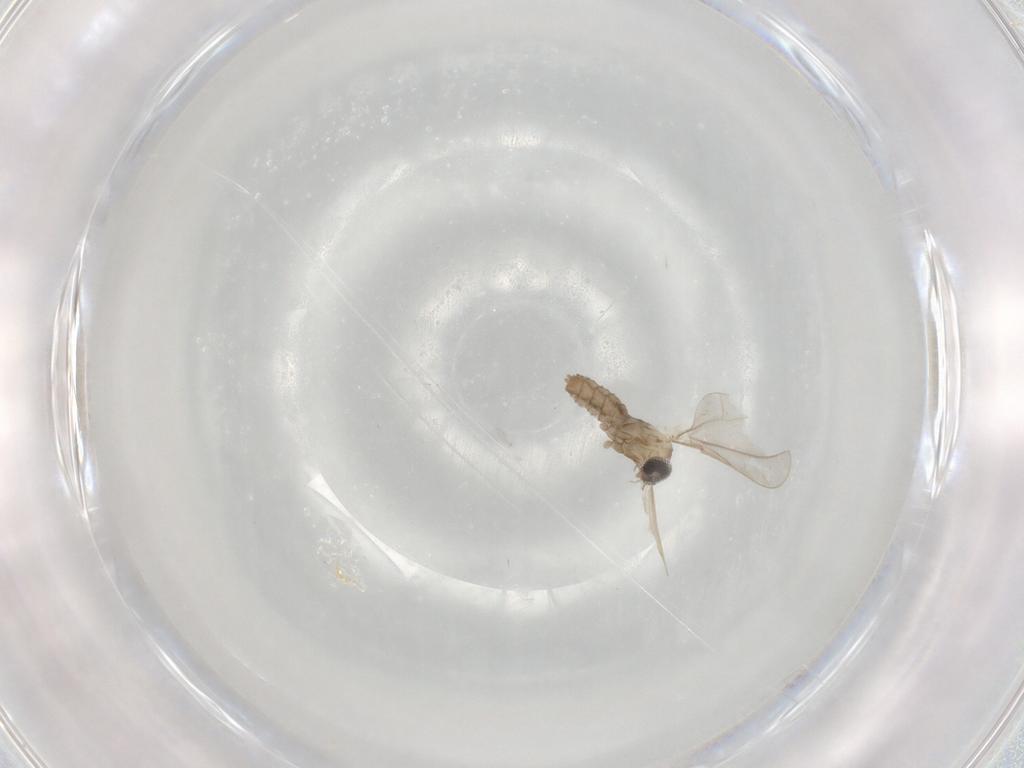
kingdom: Animalia
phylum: Arthropoda
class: Insecta
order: Diptera
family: Cecidomyiidae
